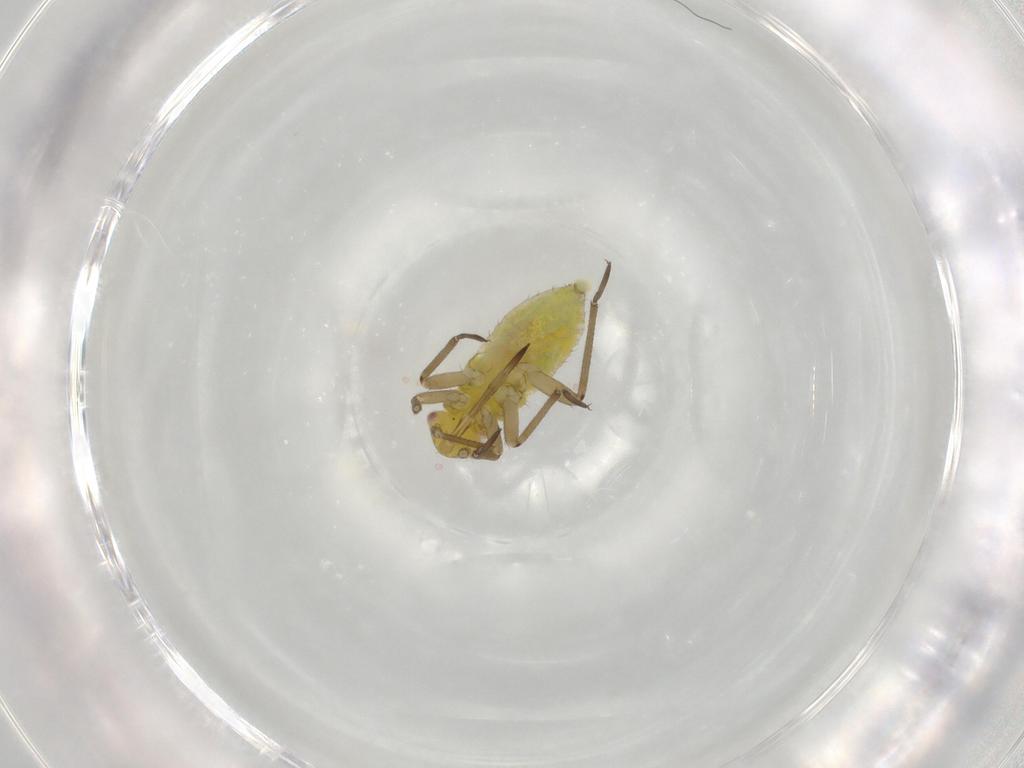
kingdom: Animalia
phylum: Arthropoda
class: Insecta
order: Hemiptera
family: Miridae
